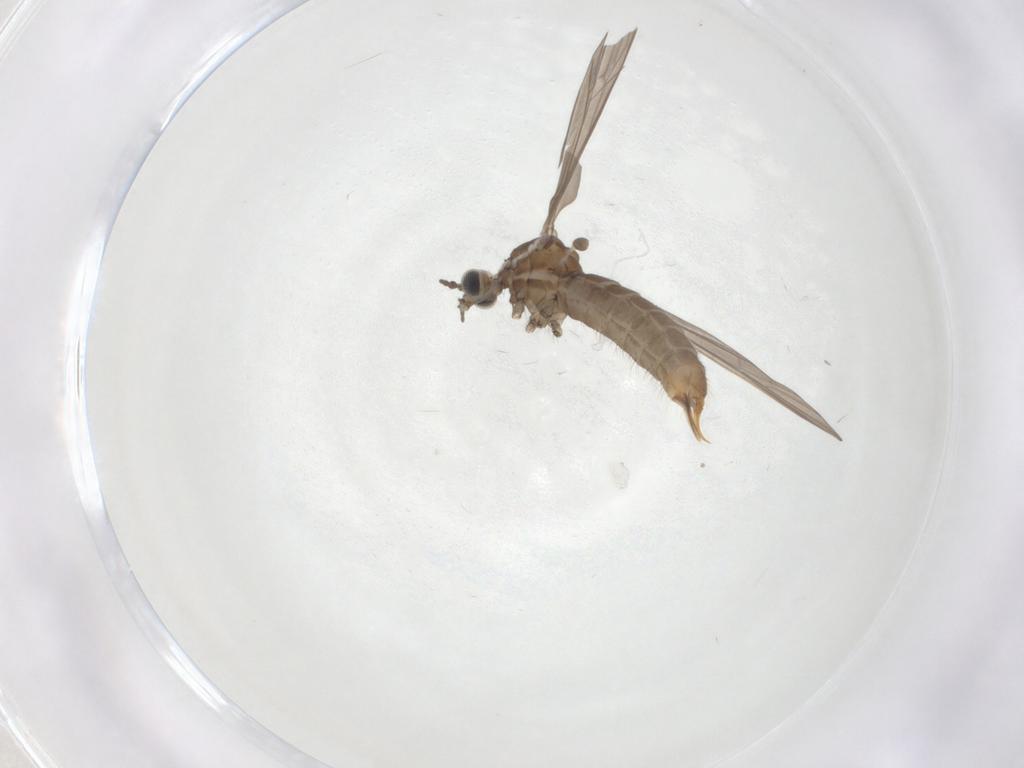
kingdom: Animalia
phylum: Arthropoda
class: Insecta
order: Diptera
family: Limoniidae
